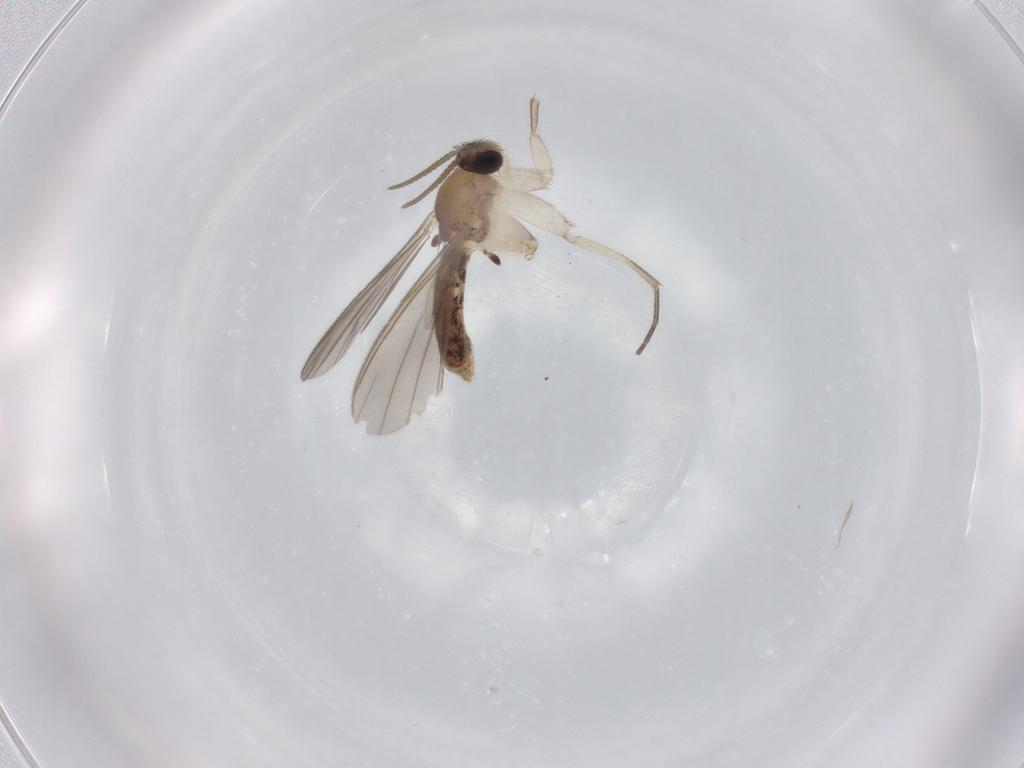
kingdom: Animalia
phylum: Arthropoda
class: Insecta
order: Diptera
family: Mycetophilidae
